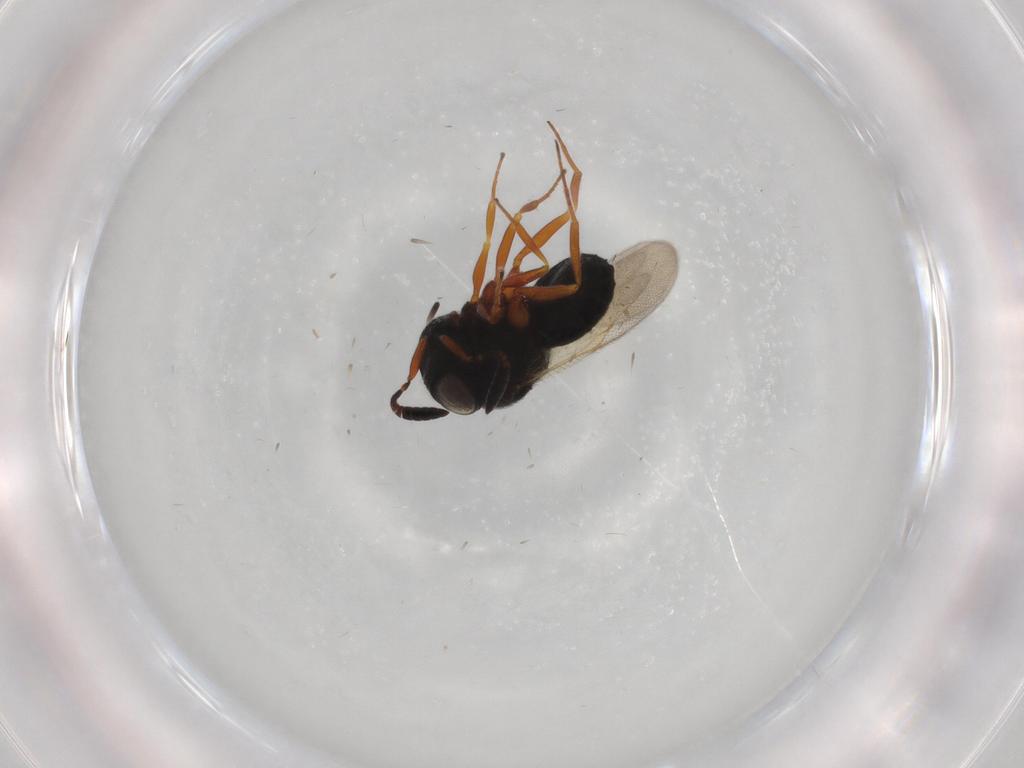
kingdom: Animalia
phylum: Arthropoda
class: Insecta
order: Hymenoptera
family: Scelionidae
